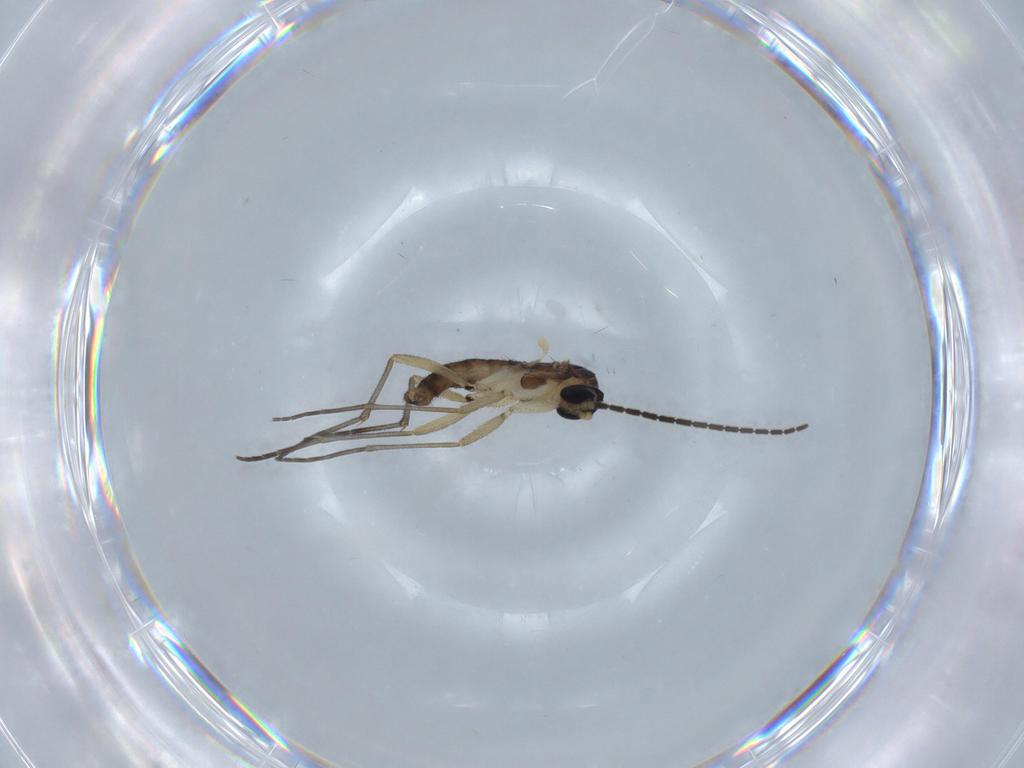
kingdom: Animalia
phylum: Arthropoda
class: Insecta
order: Diptera
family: Sciaridae
